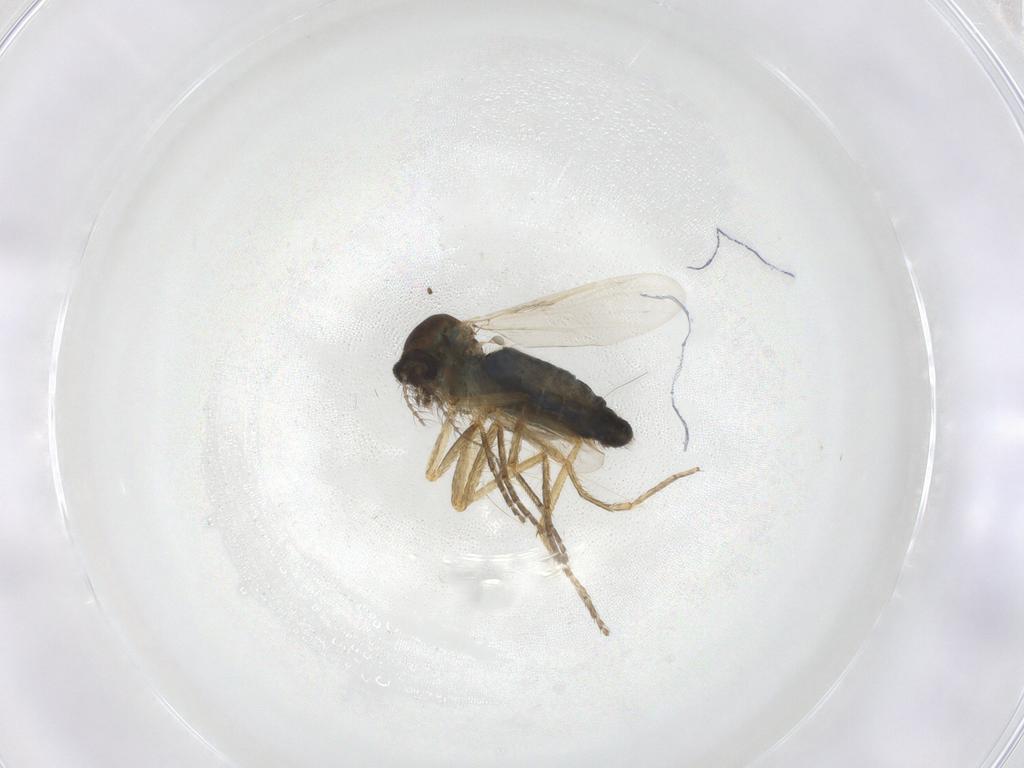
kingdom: Animalia
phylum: Arthropoda
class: Insecta
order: Diptera
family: Ceratopogonidae
